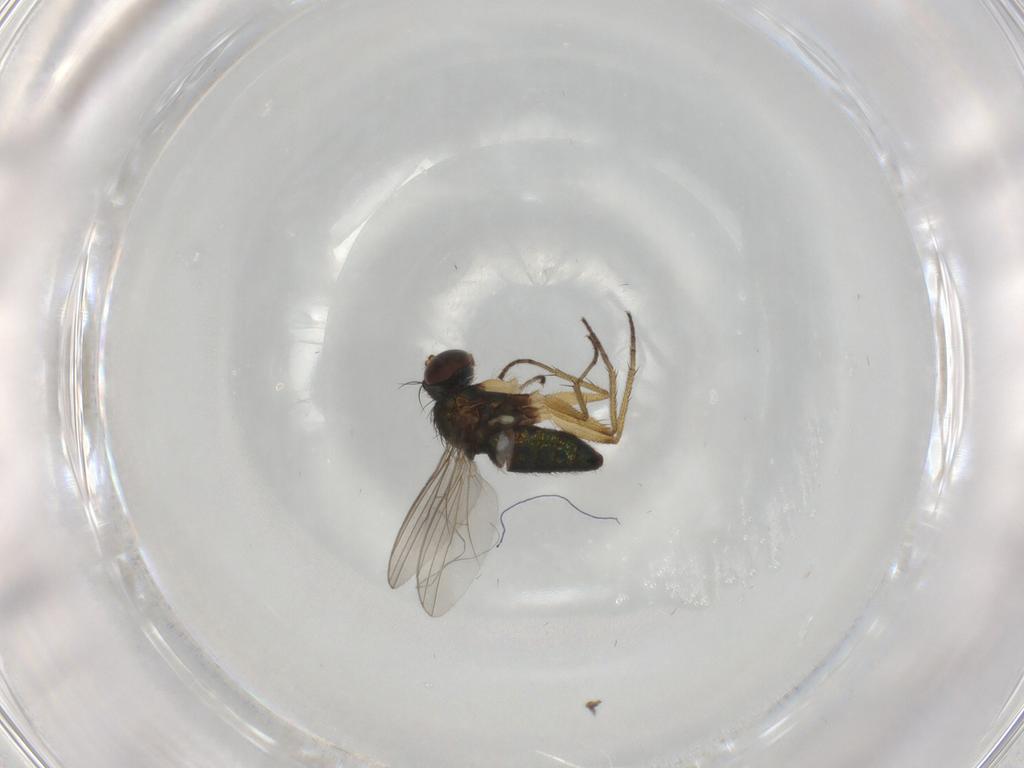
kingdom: Animalia
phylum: Arthropoda
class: Insecta
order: Diptera
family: Dolichopodidae
